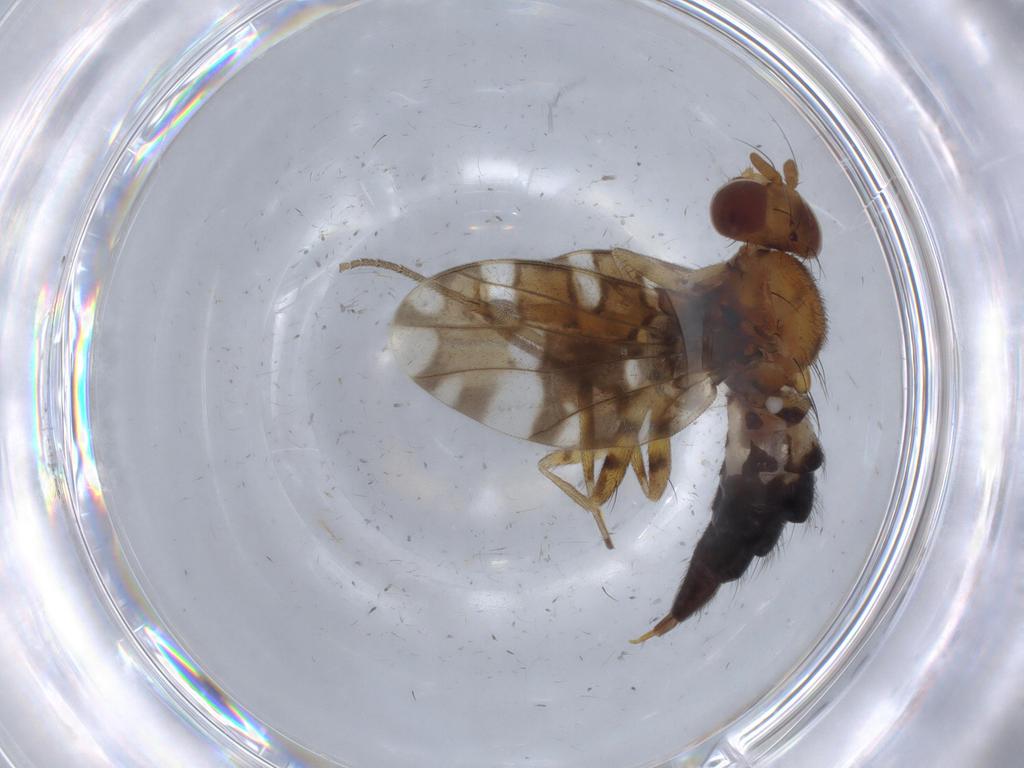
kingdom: Animalia
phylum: Arthropoda
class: Insecta
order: Diptera
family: Ulidiidae
